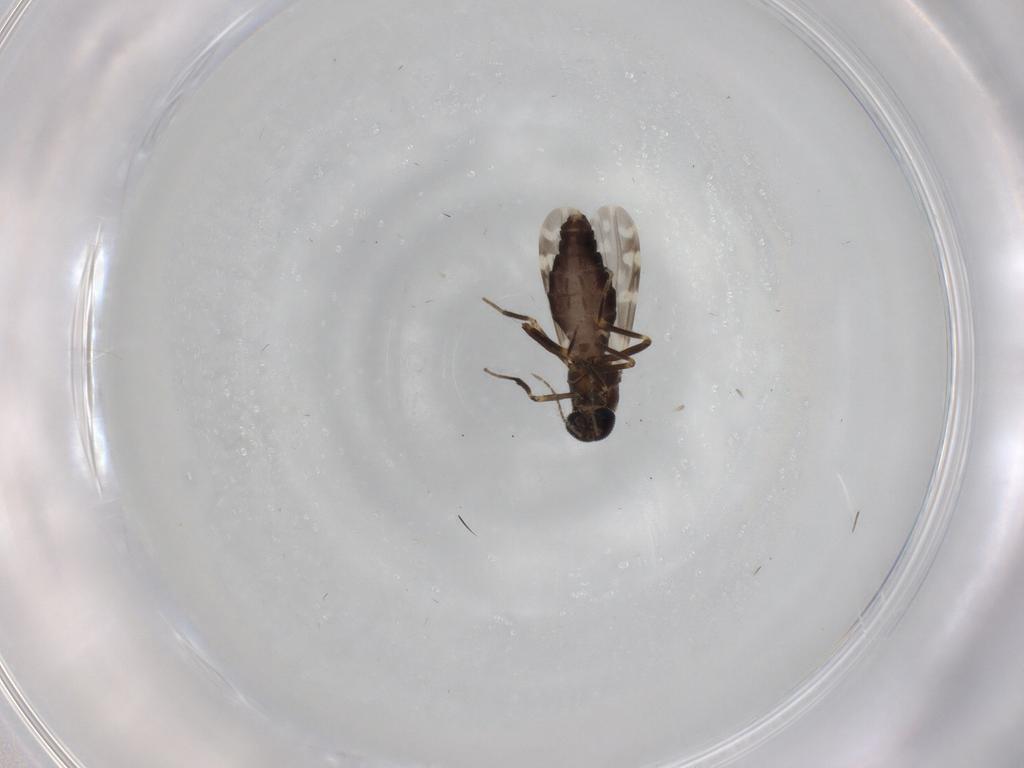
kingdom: Animalia
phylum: Arthropoda
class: Insecta
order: Diptera
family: Ceratopogonidae
